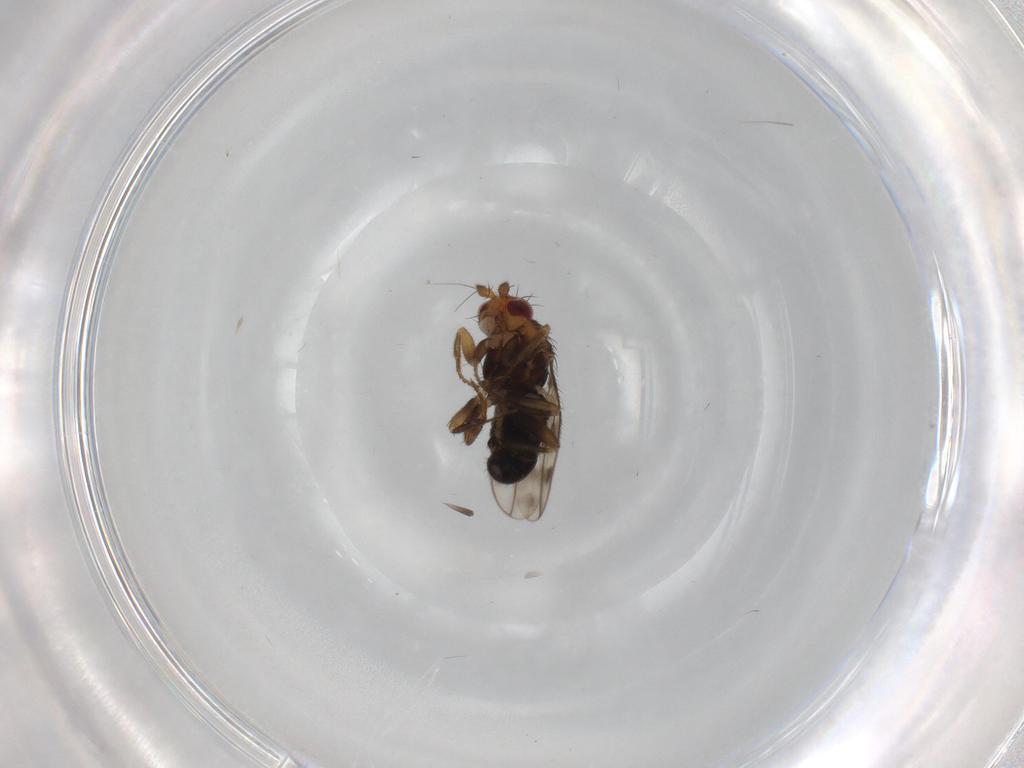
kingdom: Animalia
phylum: Arthropoda
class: Insecta
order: Diptera
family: Sphaeroceridae
